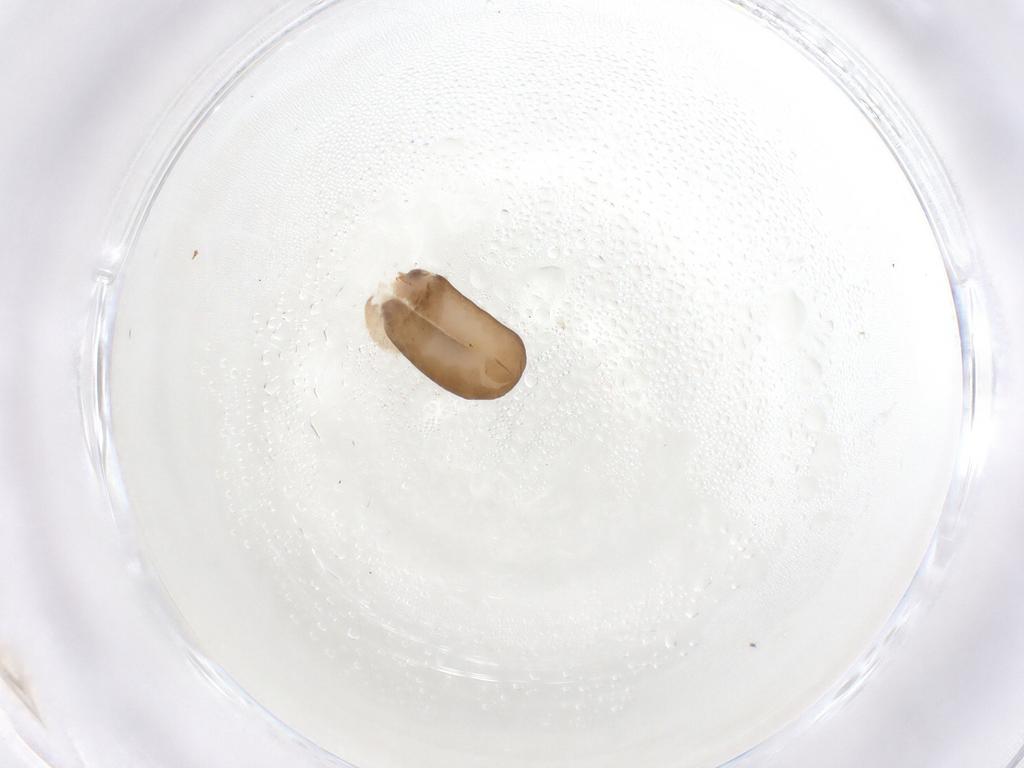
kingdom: Animalia
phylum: Arthropoda
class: Insecta
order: Hymenoptera
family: Dryinidae
